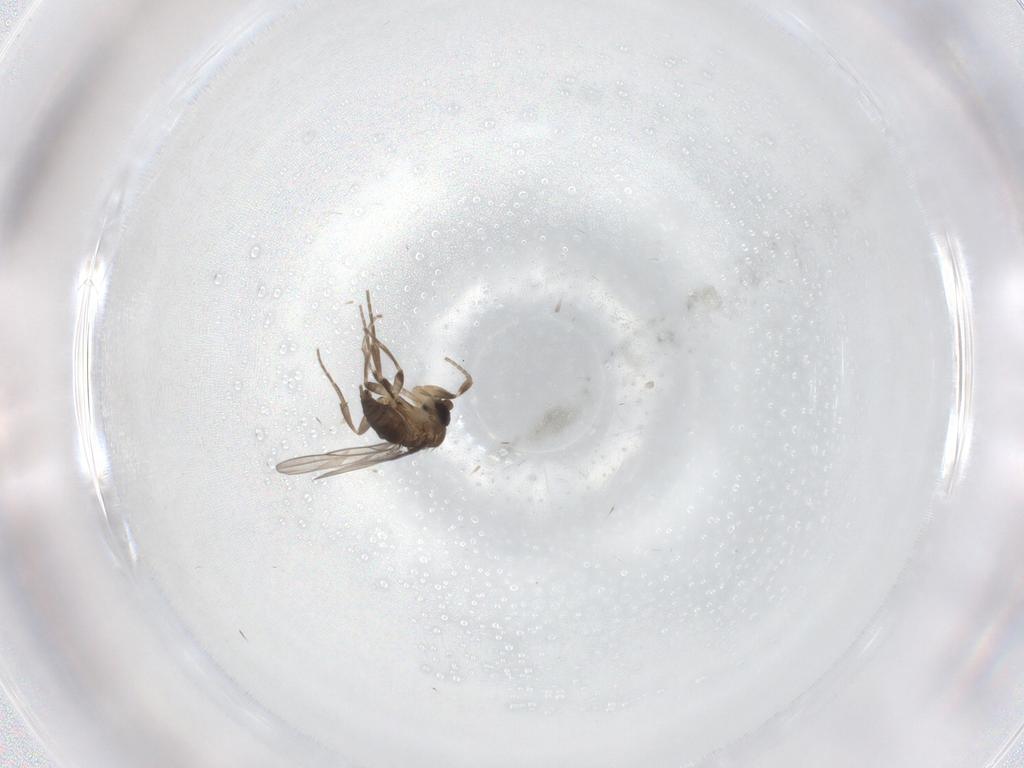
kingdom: Animalia
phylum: Arthropoda
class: Insecta
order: Diptera
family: Phoridae
